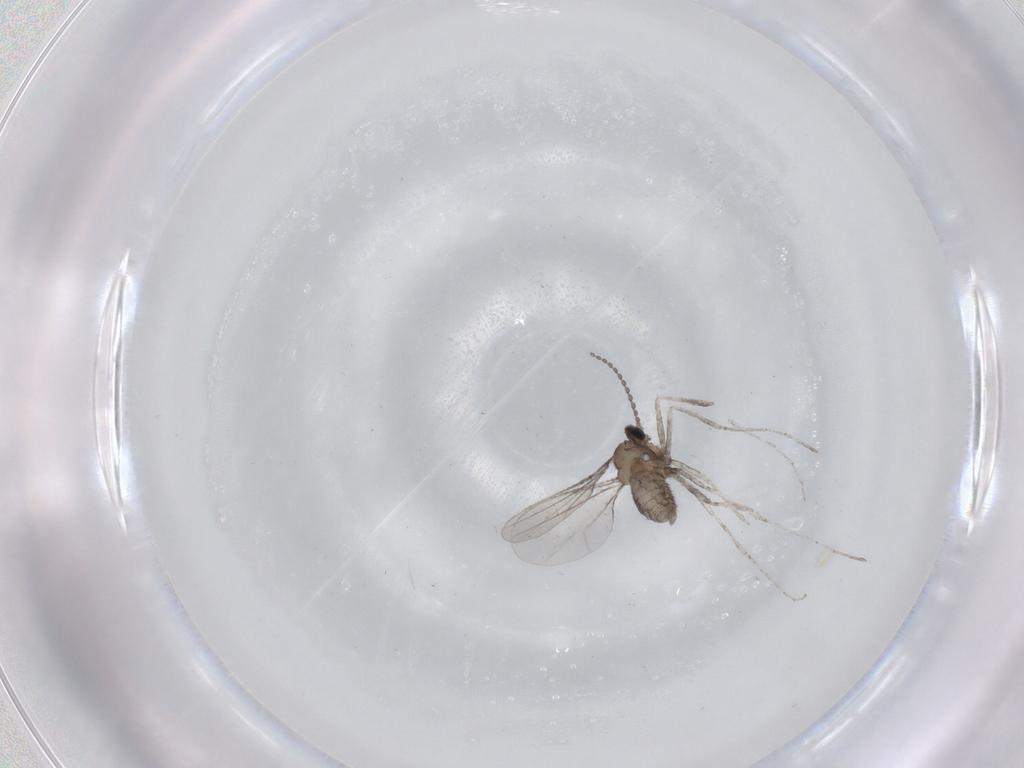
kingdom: Animalia
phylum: Arthropoda
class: Insecta
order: Diptera
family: Cecidomyiidae
